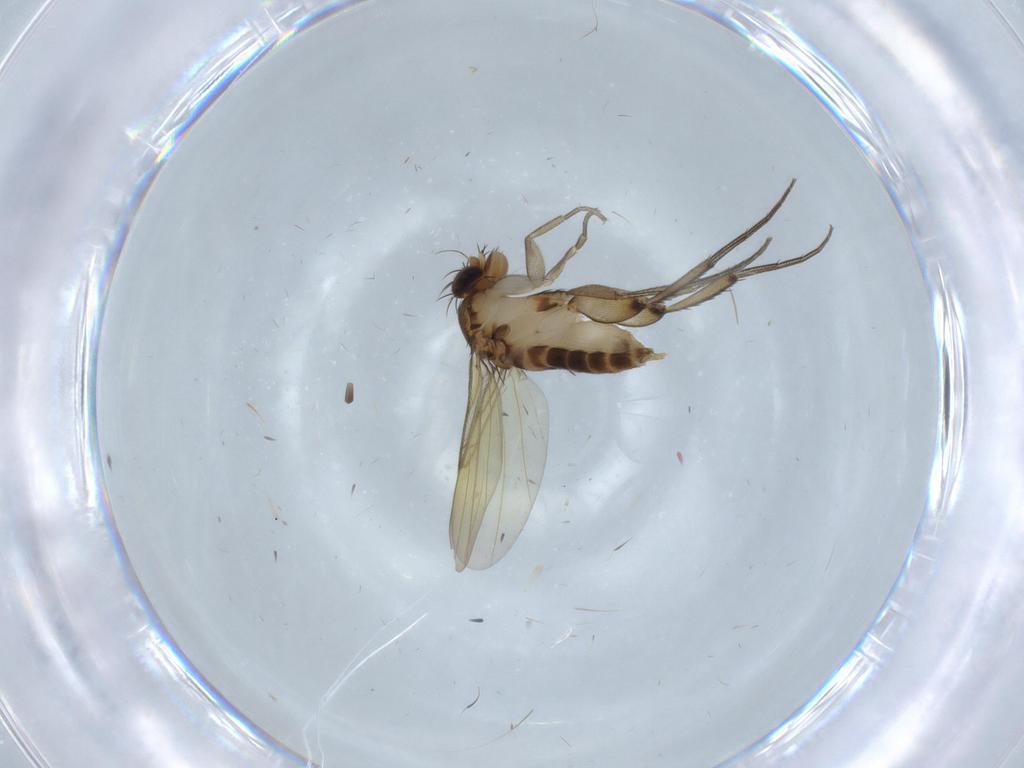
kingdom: Animalia
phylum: Arthropoda
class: Insecta
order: Diptera
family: Phoridae
